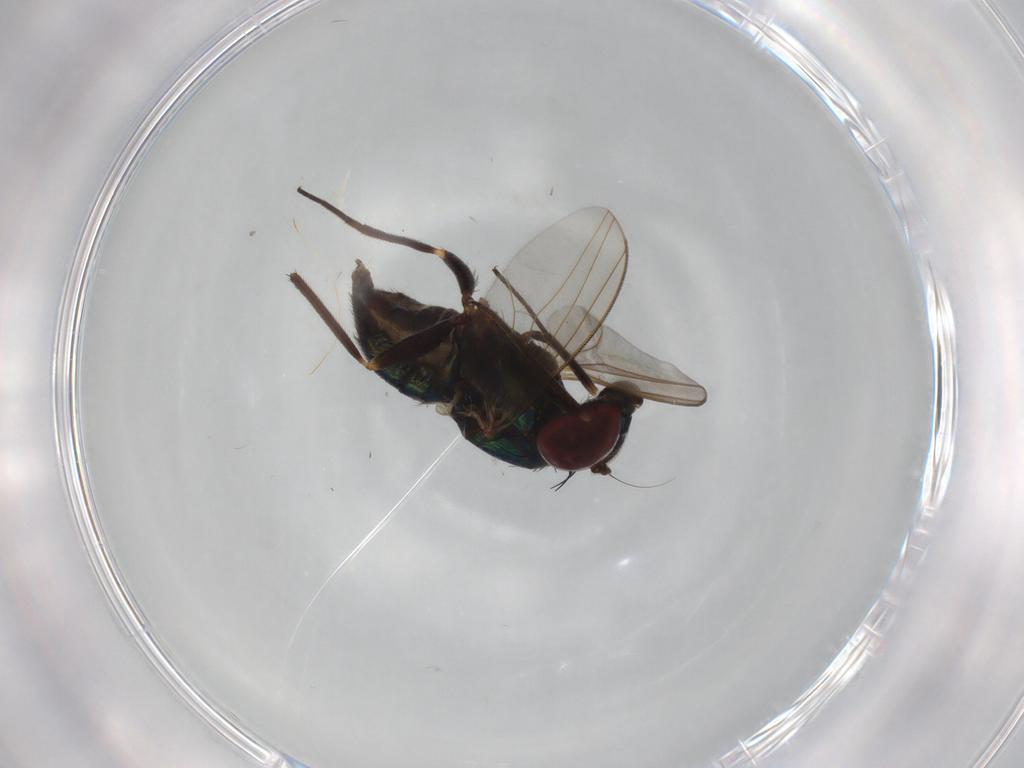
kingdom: Animalia
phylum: Arthropoda
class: Insecta
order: Diptera
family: Dolichopodidae
